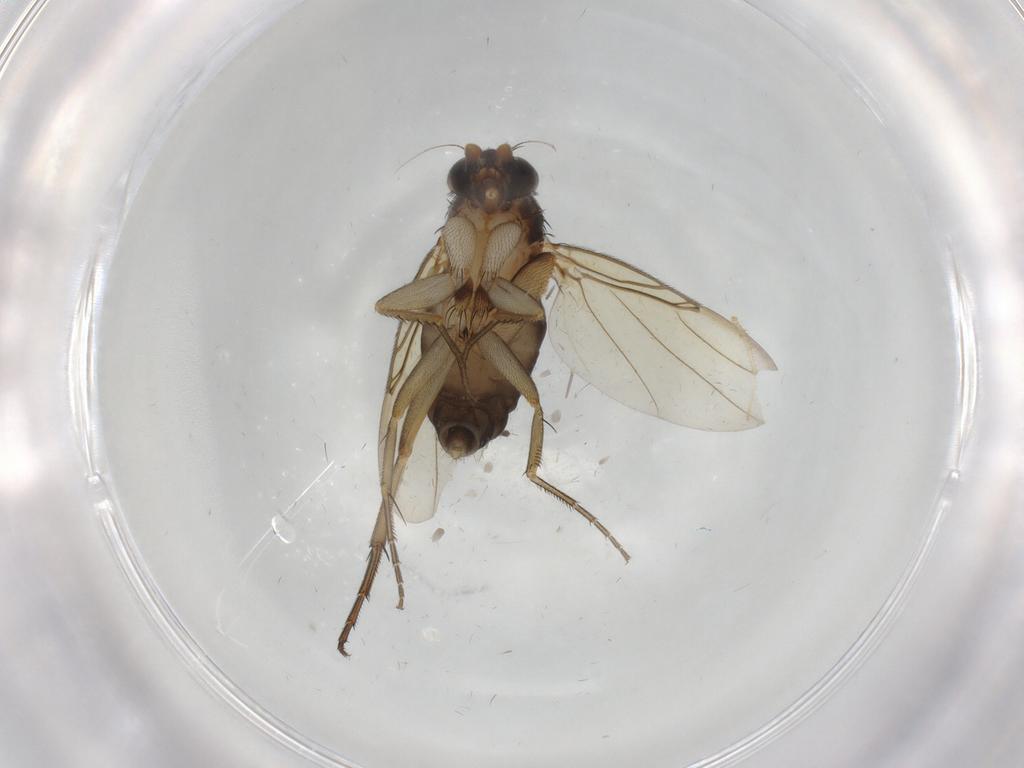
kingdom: Animalia
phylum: Arthropoda
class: Insecta
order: Diptera
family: Phoridae
